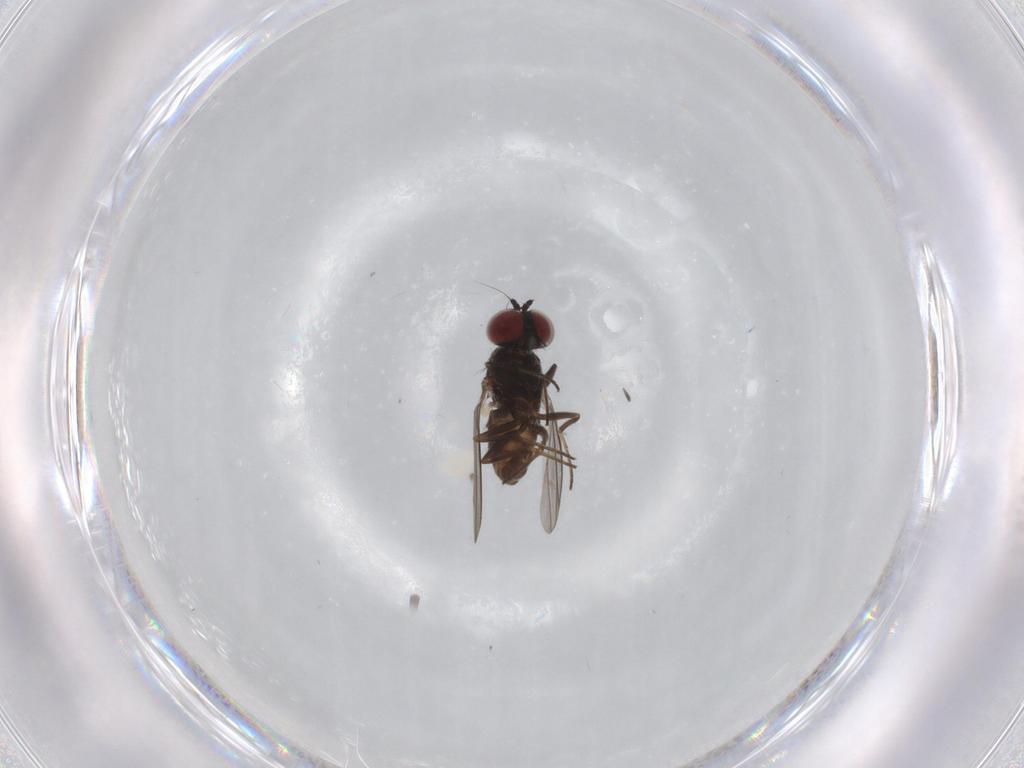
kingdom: Animalia
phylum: Arthropoda
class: Insecta
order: Diptera
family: Dolichopodidae
